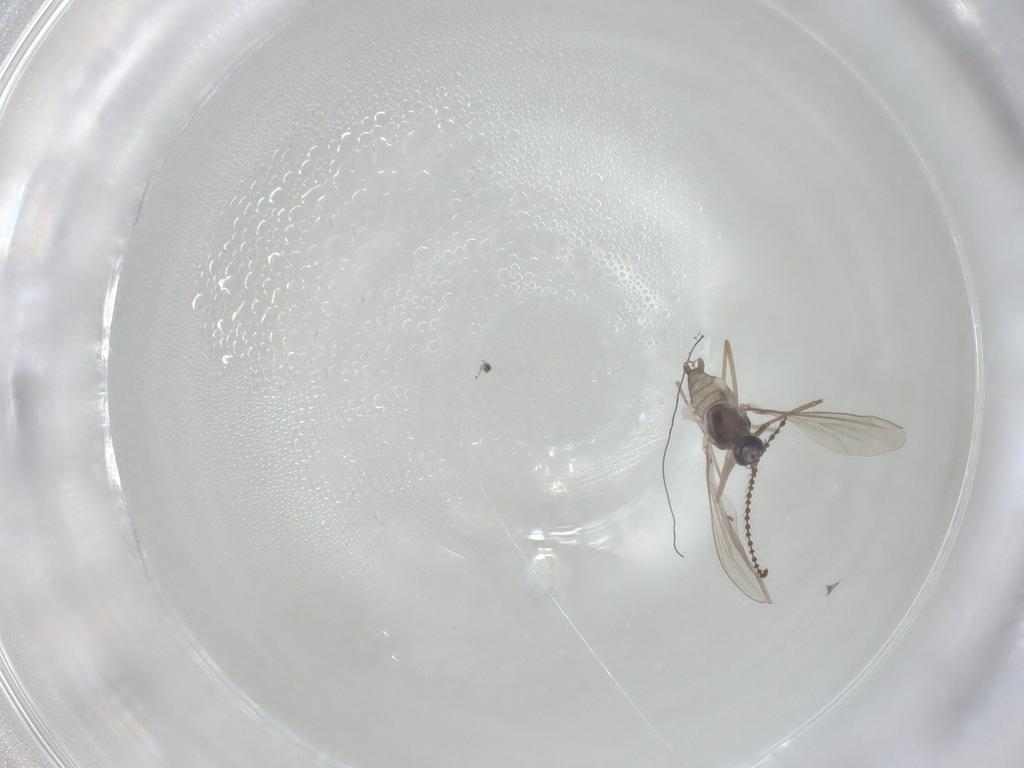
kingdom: Animalia
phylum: Arthropoda
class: Insecta
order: Diptera
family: Cecidomyiidae
